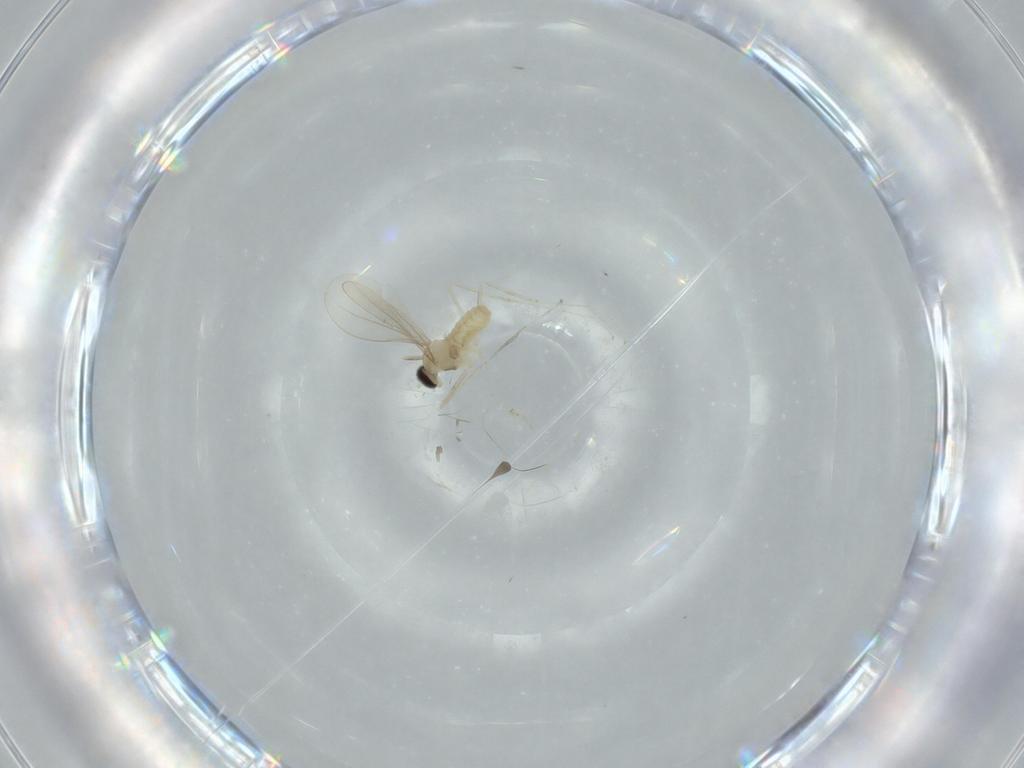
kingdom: Animalia
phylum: Arthropoda
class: Insecta
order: Diptera
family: Cecidomyiidae
